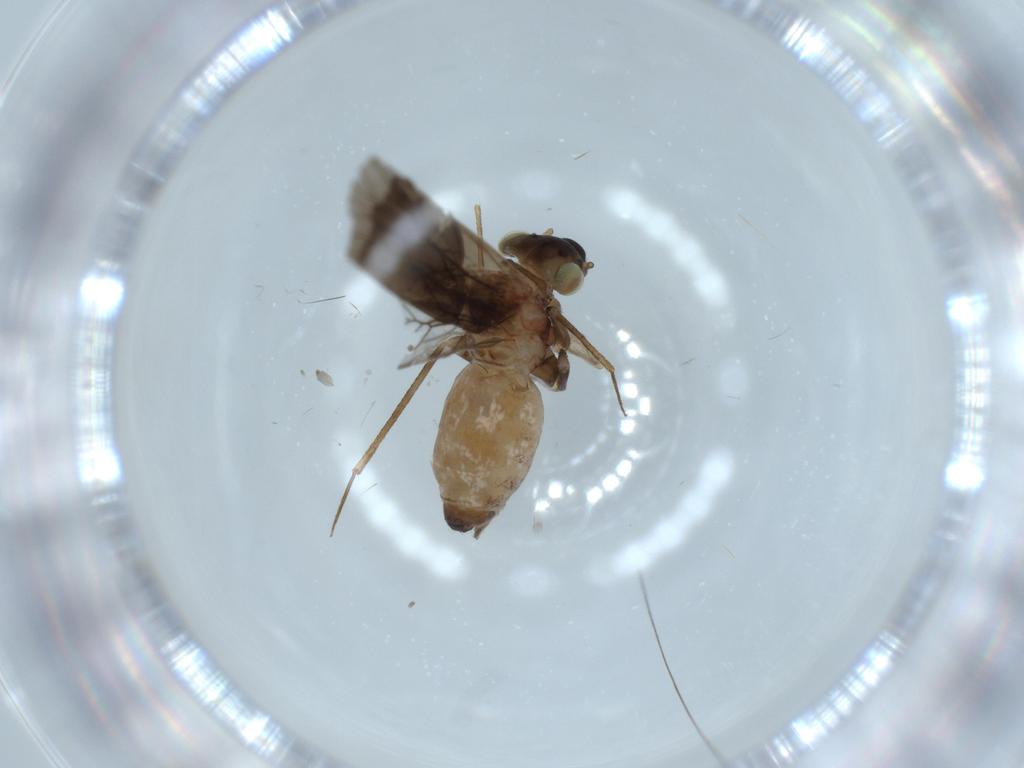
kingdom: Animalia
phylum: Arthropoda
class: Insecta
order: Psocodea
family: Lepidopsocidae
